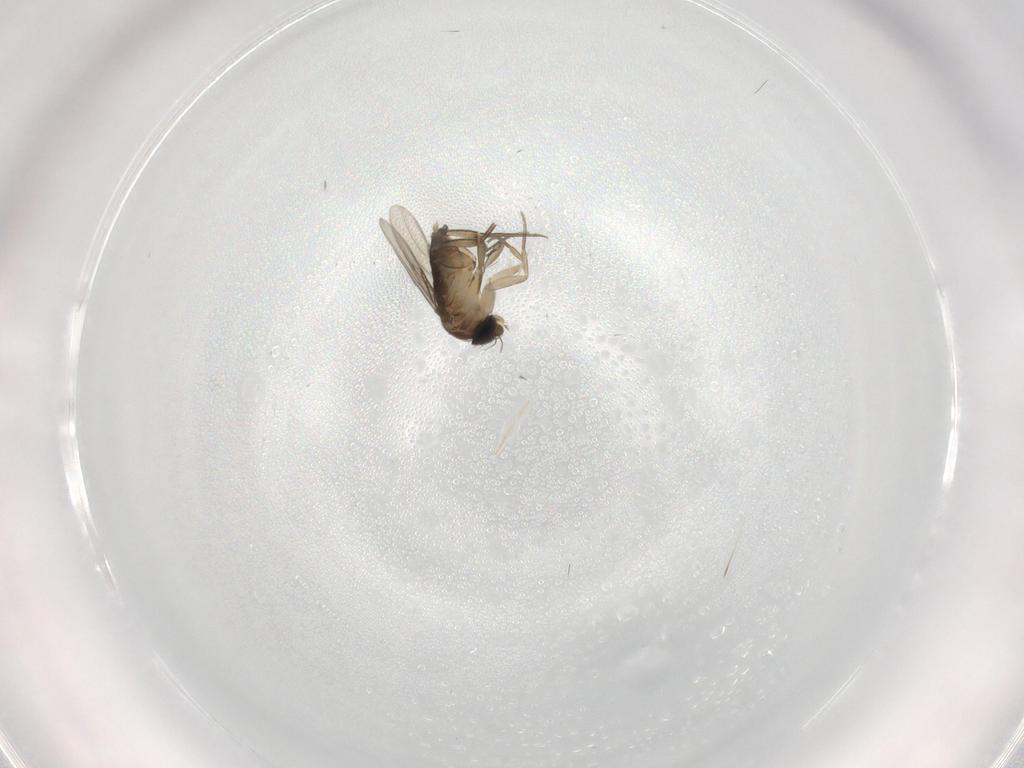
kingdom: Animalia
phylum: Arthropoda
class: Insecta
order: Diptera
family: Phoridae
